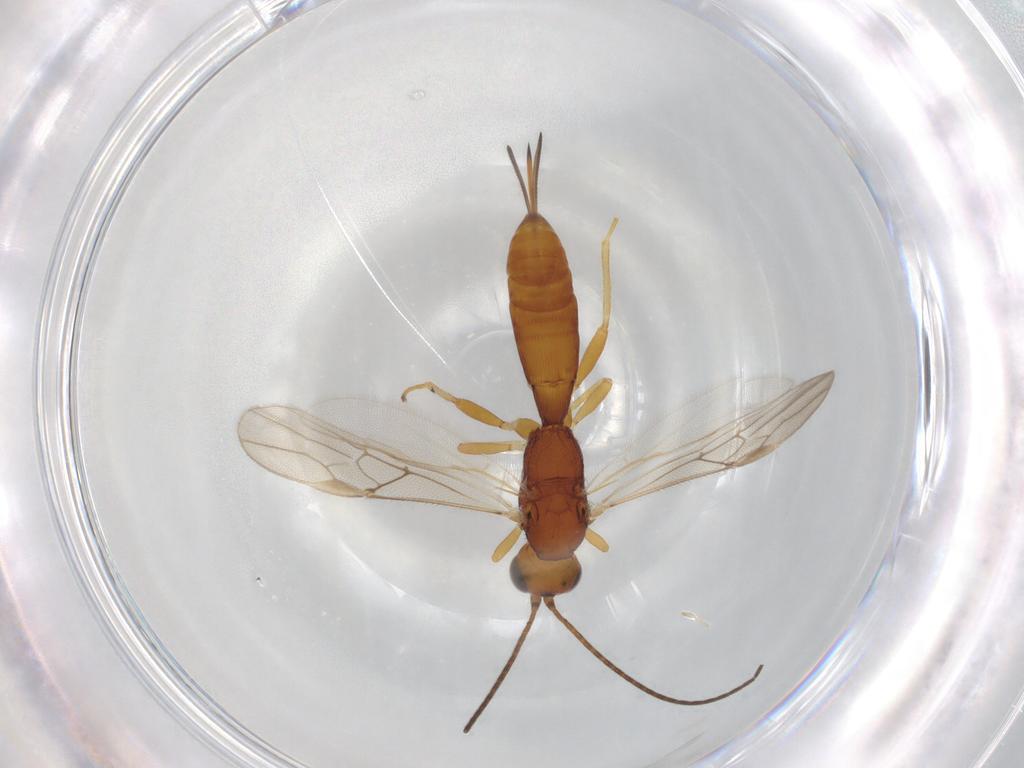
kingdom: Animalia
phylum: Arthropoda
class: Insecta
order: Hymenoptera
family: Braconidae
